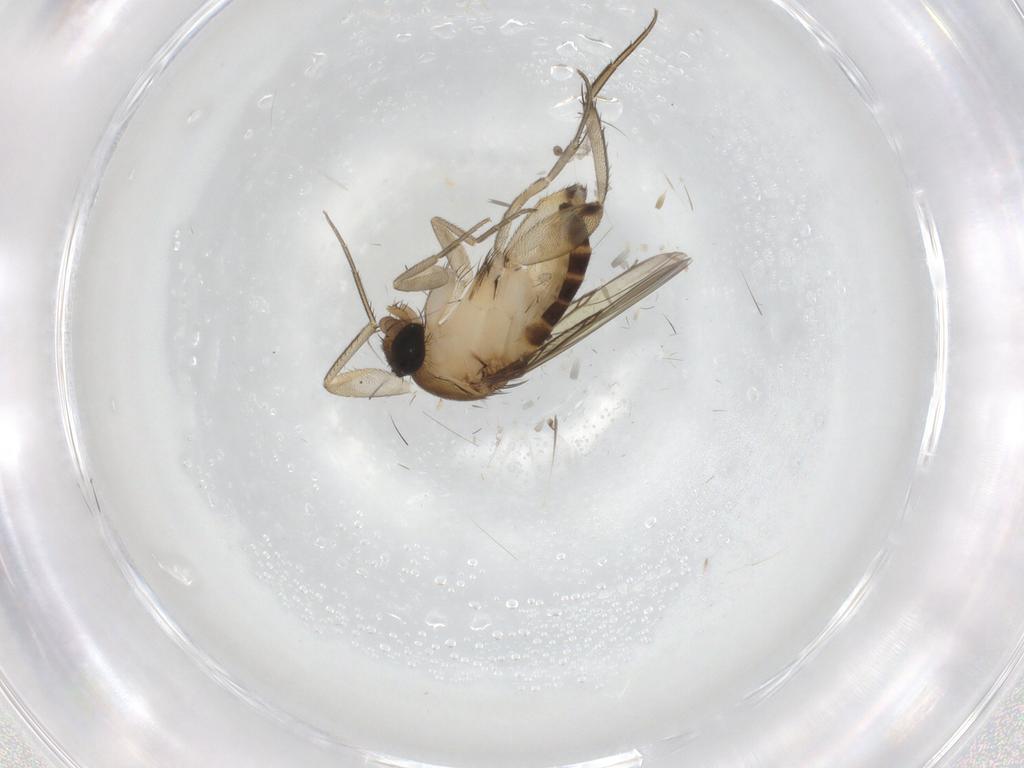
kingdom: Animalia
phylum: Arthropoda
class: Insecta
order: Diptera
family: Phoridae
